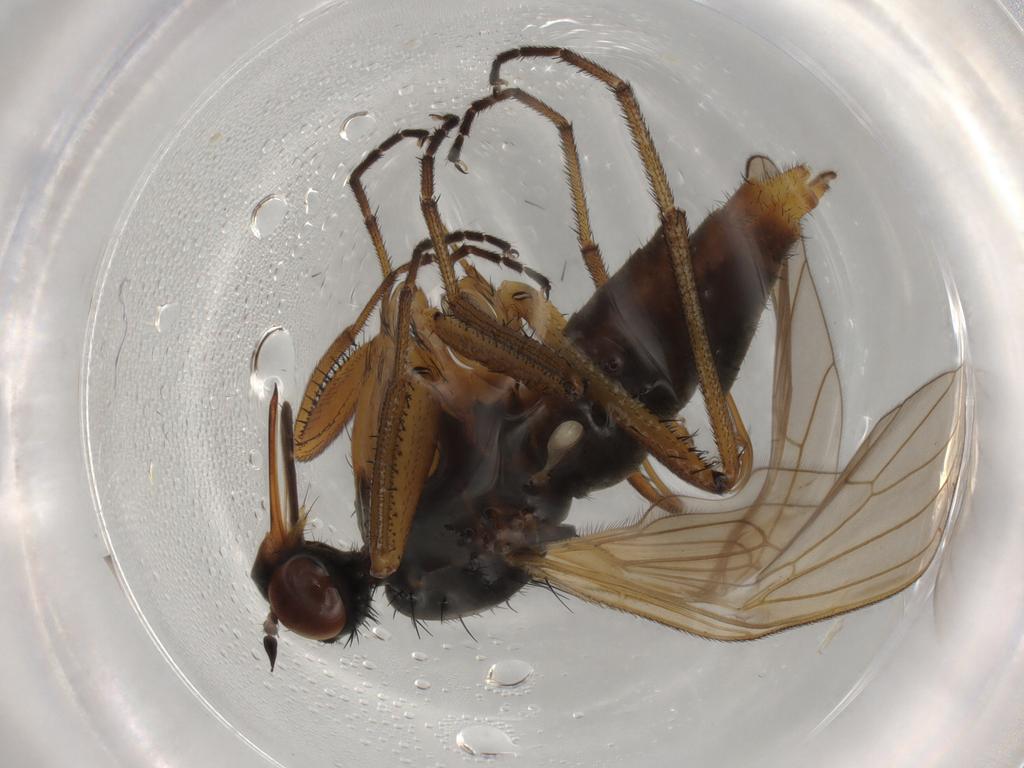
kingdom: Animalia
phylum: Arthropoda
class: Insecta
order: Diptera
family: Empididae
